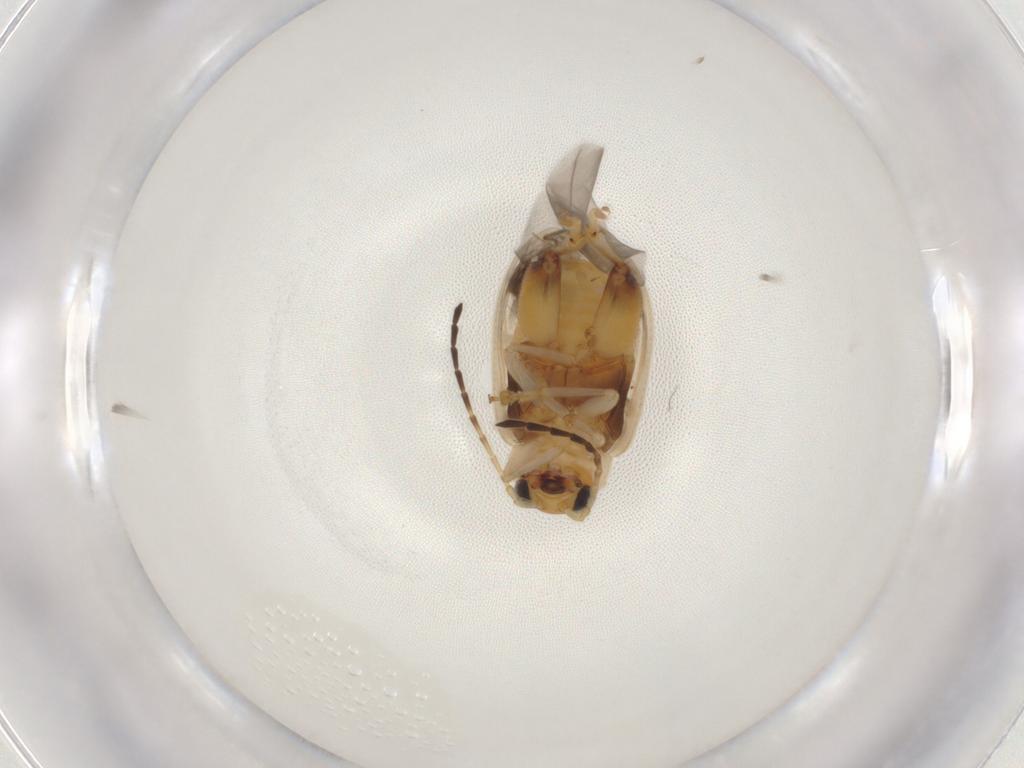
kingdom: Animalia
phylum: Arthropoda
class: Insecta
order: Coleoptera
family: Chrysomelidae
